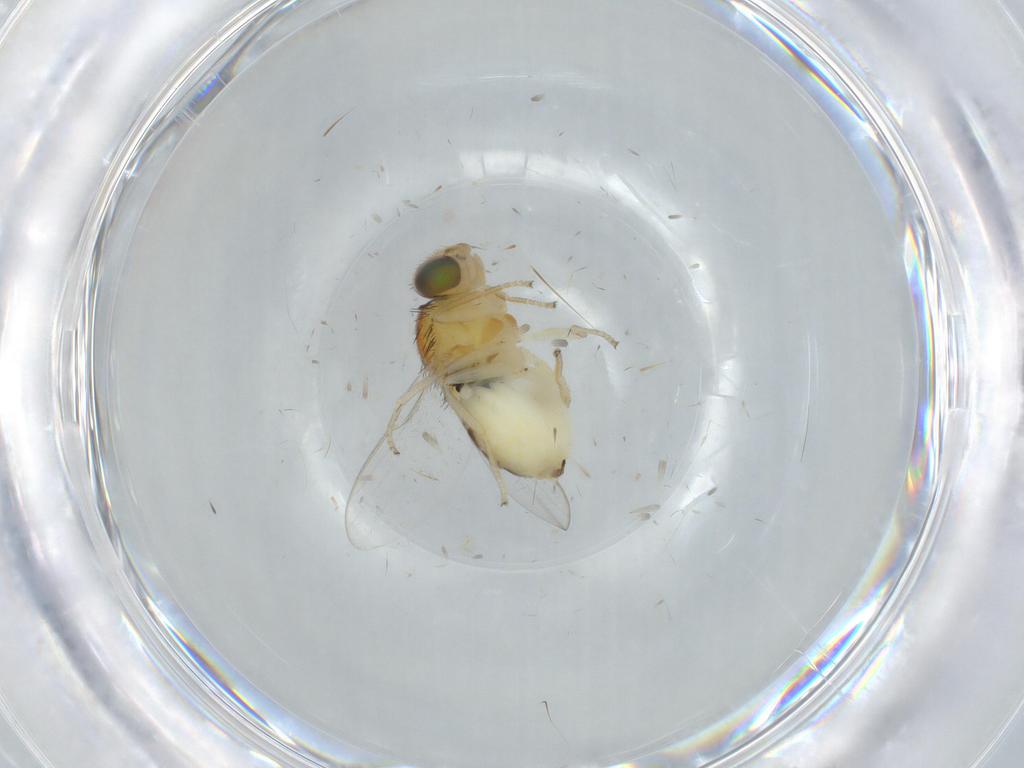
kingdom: Animalia
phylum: Arthropoda
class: Insecta
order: Diptera
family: Chloropidae
